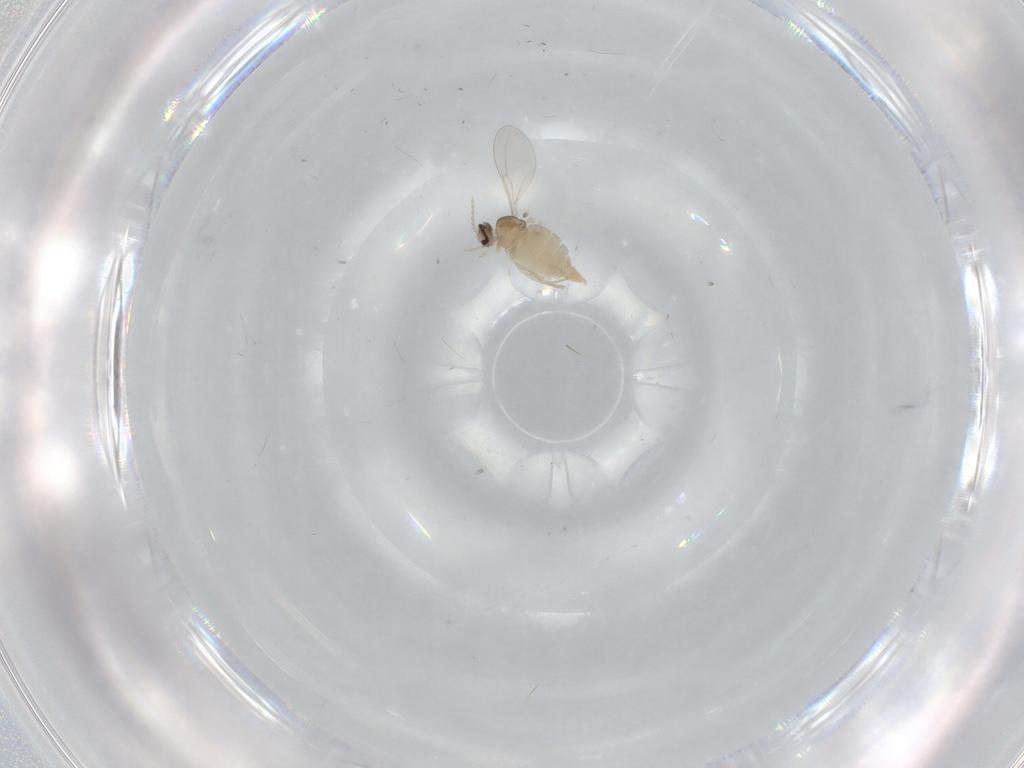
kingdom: Animalia
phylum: Arthropoda
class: Insecta
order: Diptera
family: Cecidomyiidae
